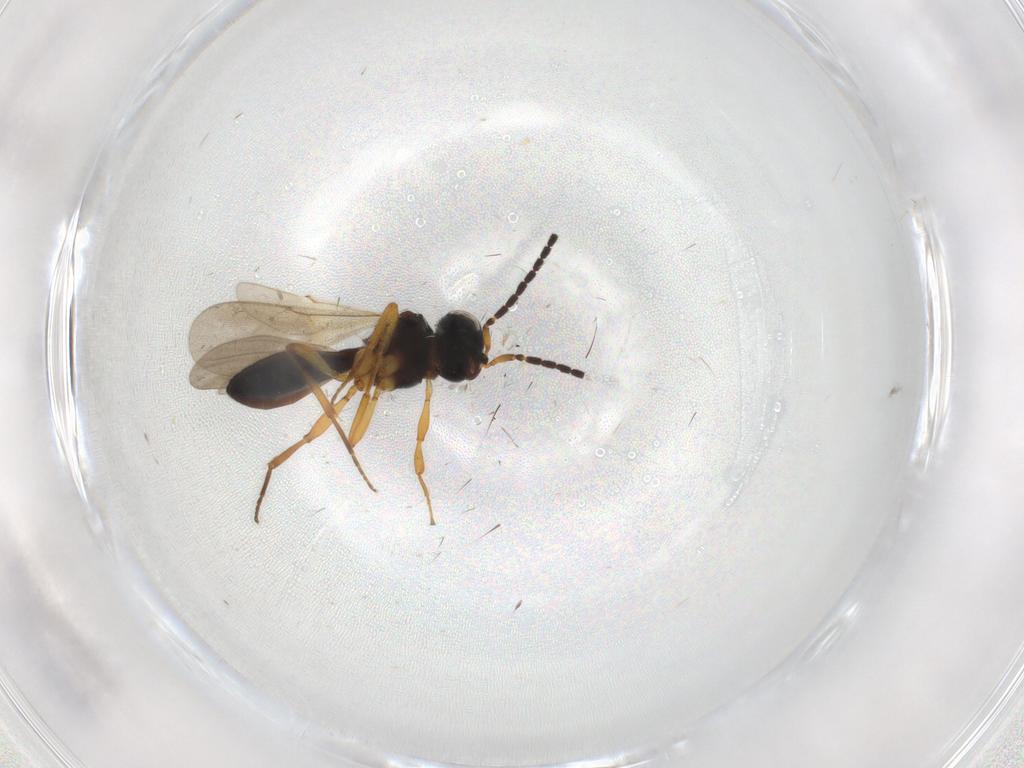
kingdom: Animalia
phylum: Arthropoda
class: Insecta
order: Hymenoptera
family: Scelionidae
